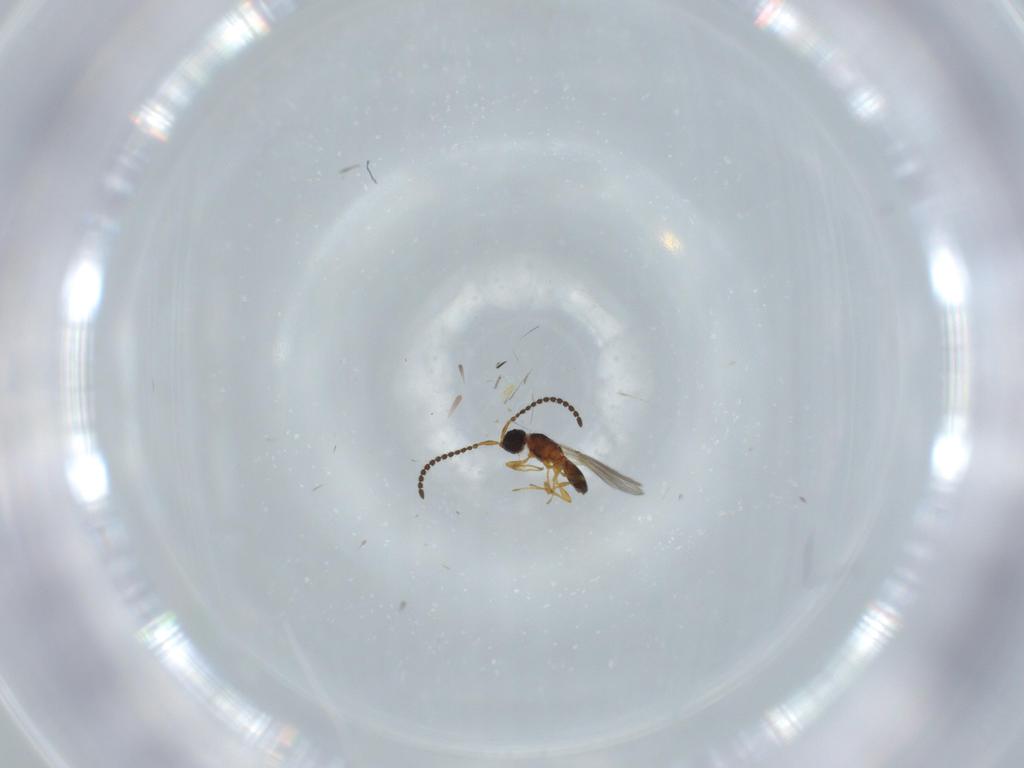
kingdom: Animalia
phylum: Arthropoda
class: Insecta
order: Hymenoptera
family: Diapriidae
